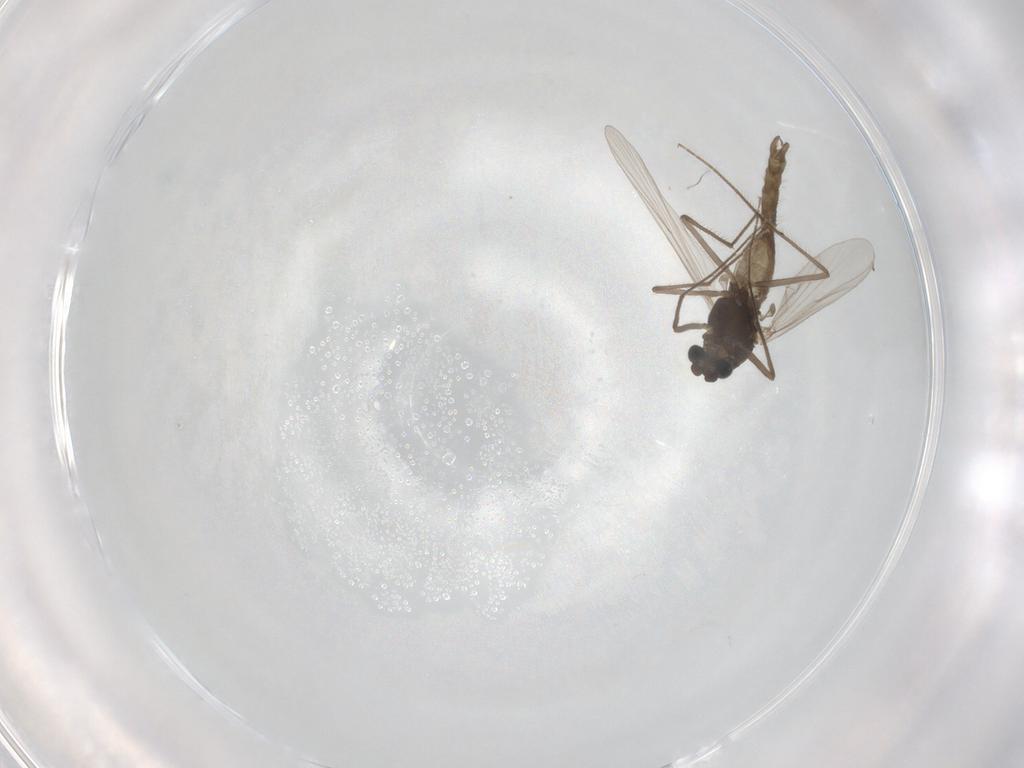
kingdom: Animalia
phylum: Arthropoda
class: Insecta
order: Diptera
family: Chironomidae
